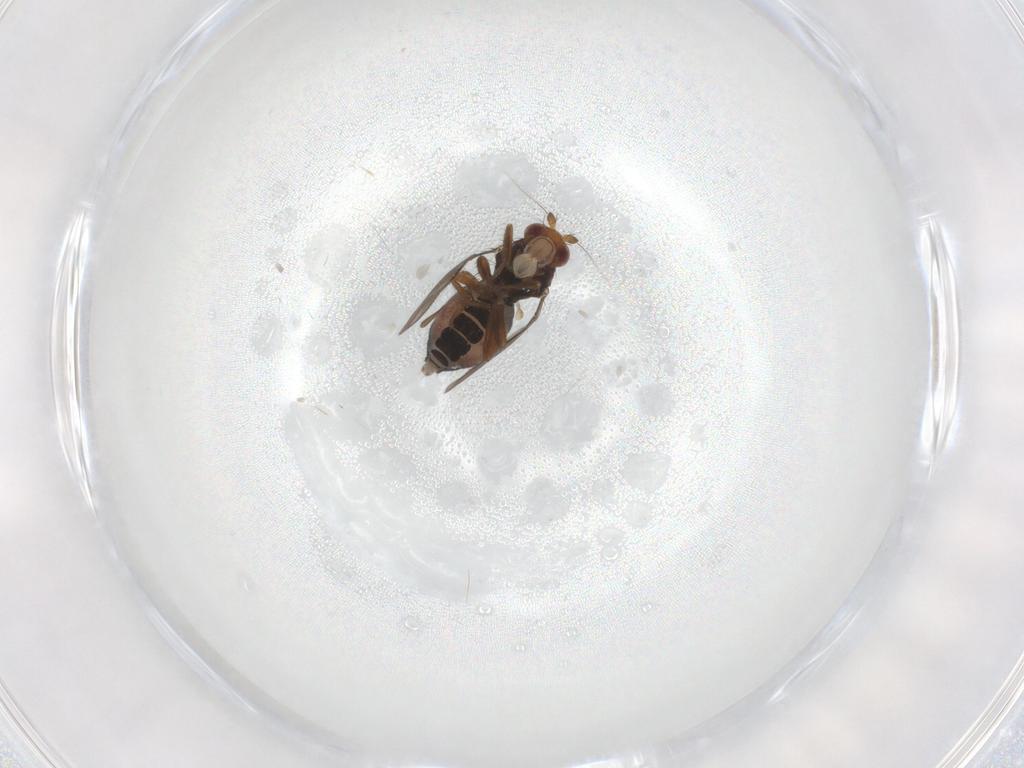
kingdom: Animalia
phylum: Arthropoda
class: Insecta
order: Diptera
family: Sphaeroceridae
